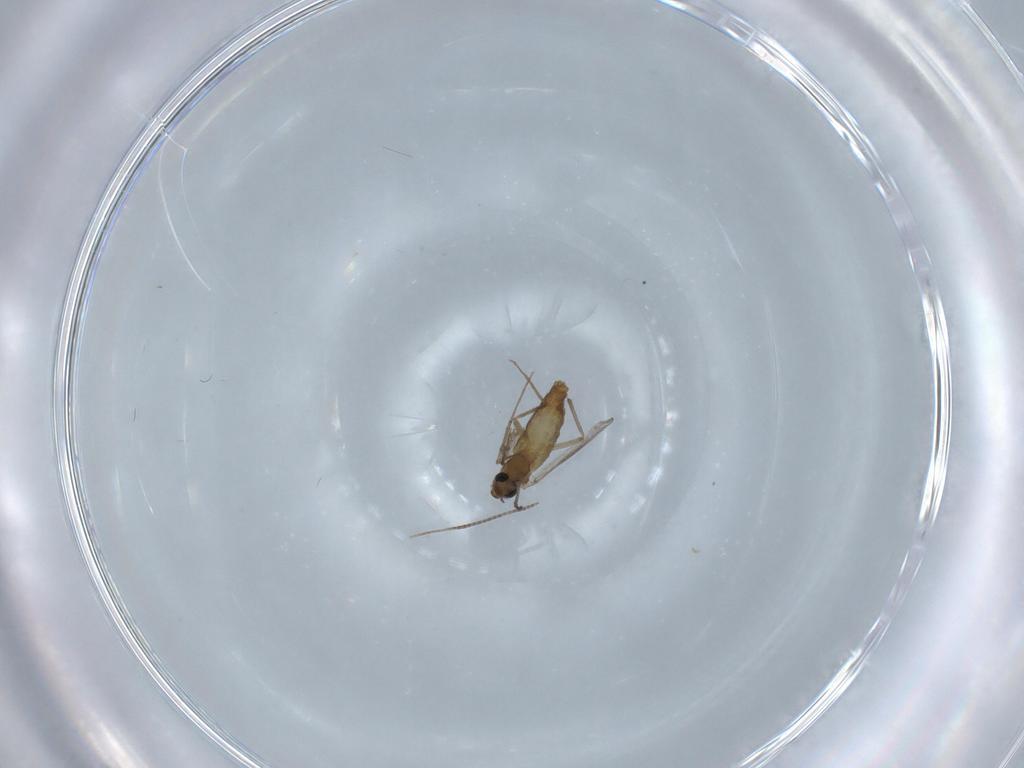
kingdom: Animalia
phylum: Arthropoda
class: Insecta
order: Diptera
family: Chironomidae
